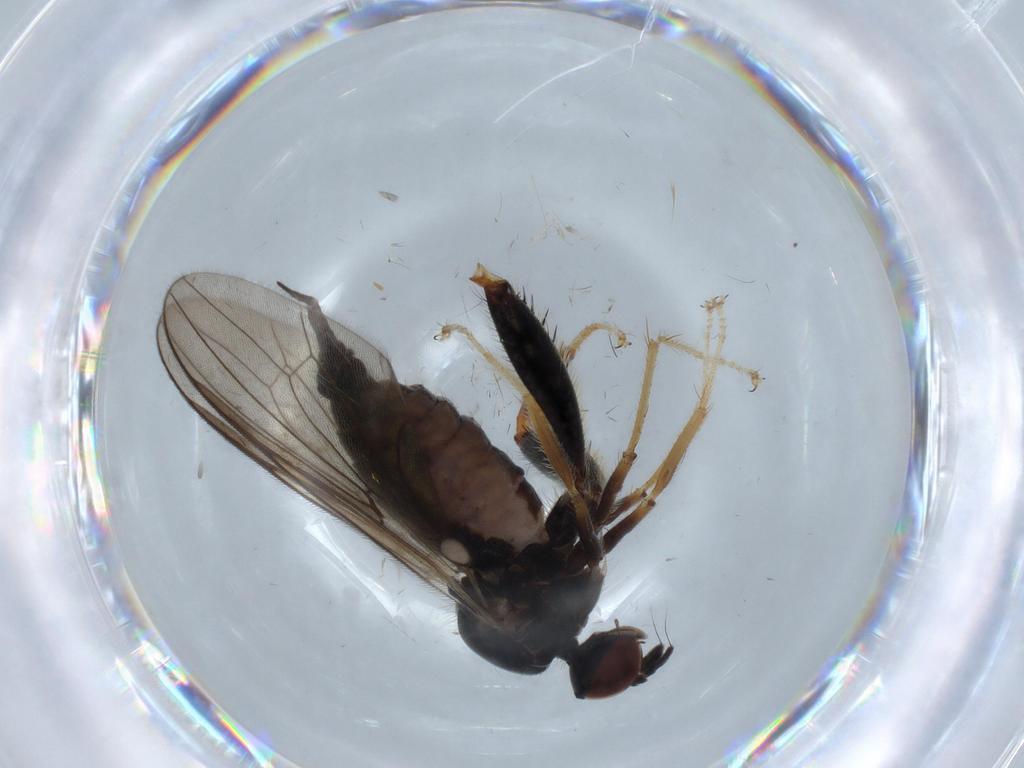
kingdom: Animalia
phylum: Arthropoda
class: Insecta
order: Diptera
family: Hybotidae
